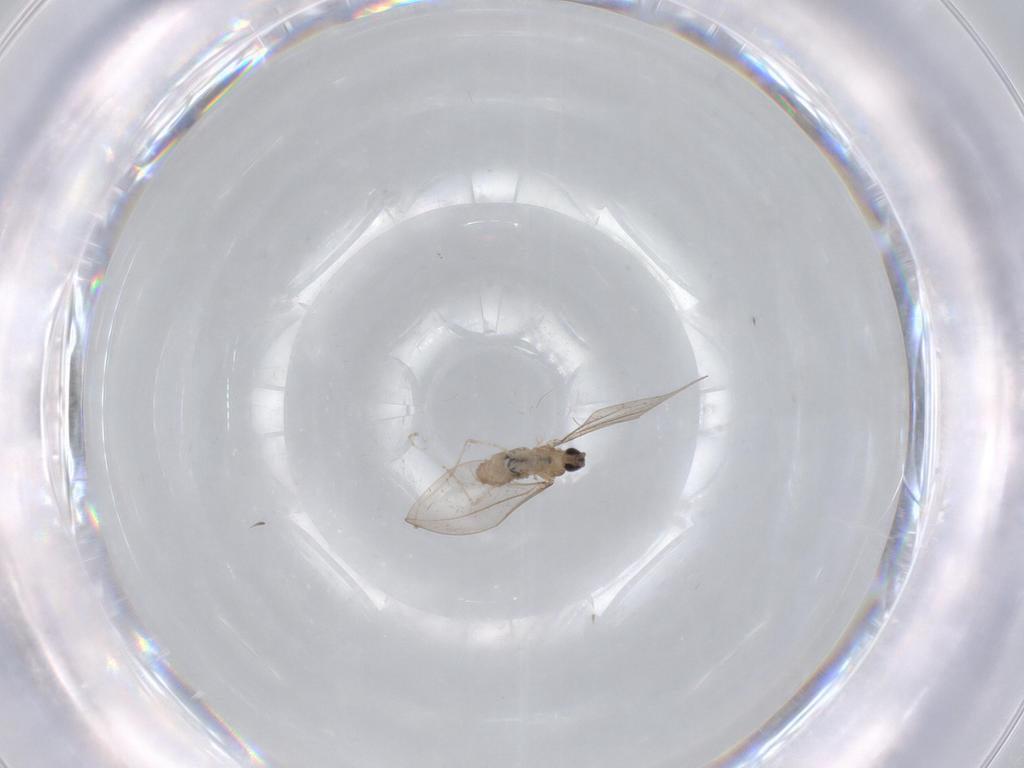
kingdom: Animalia
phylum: Arthropoda
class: Insecta
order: Diptera
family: Cecidomyiidae
